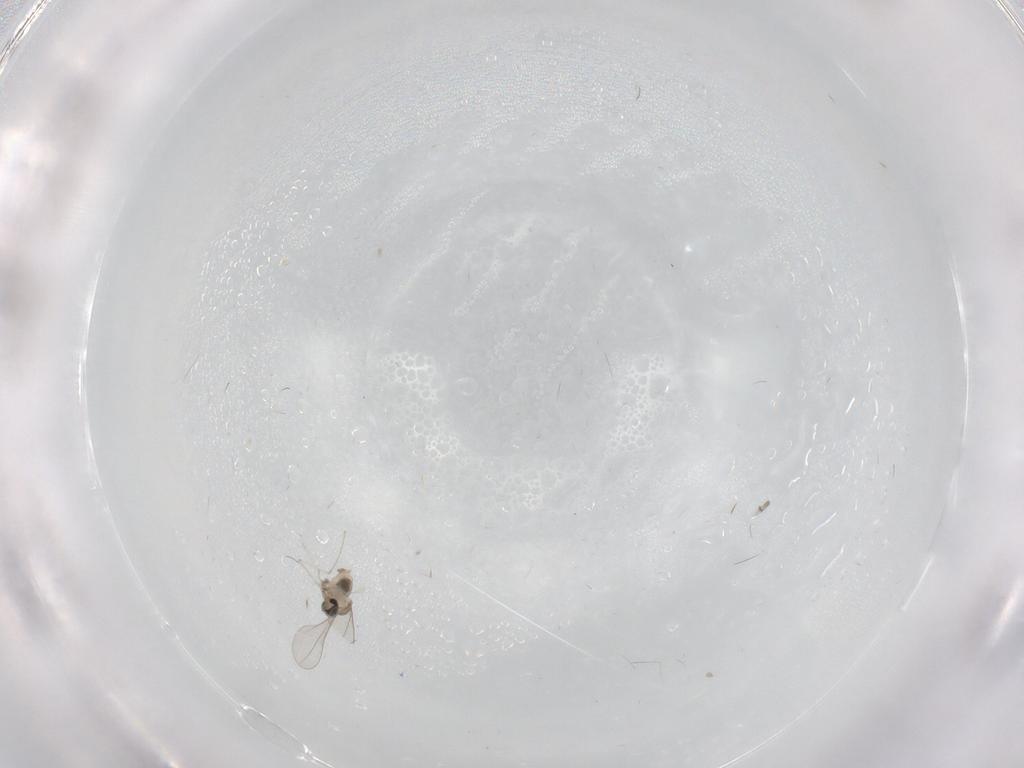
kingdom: Animalia
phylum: Arthropoda
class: Insecta
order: Diptera
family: Cecidomyiidae
